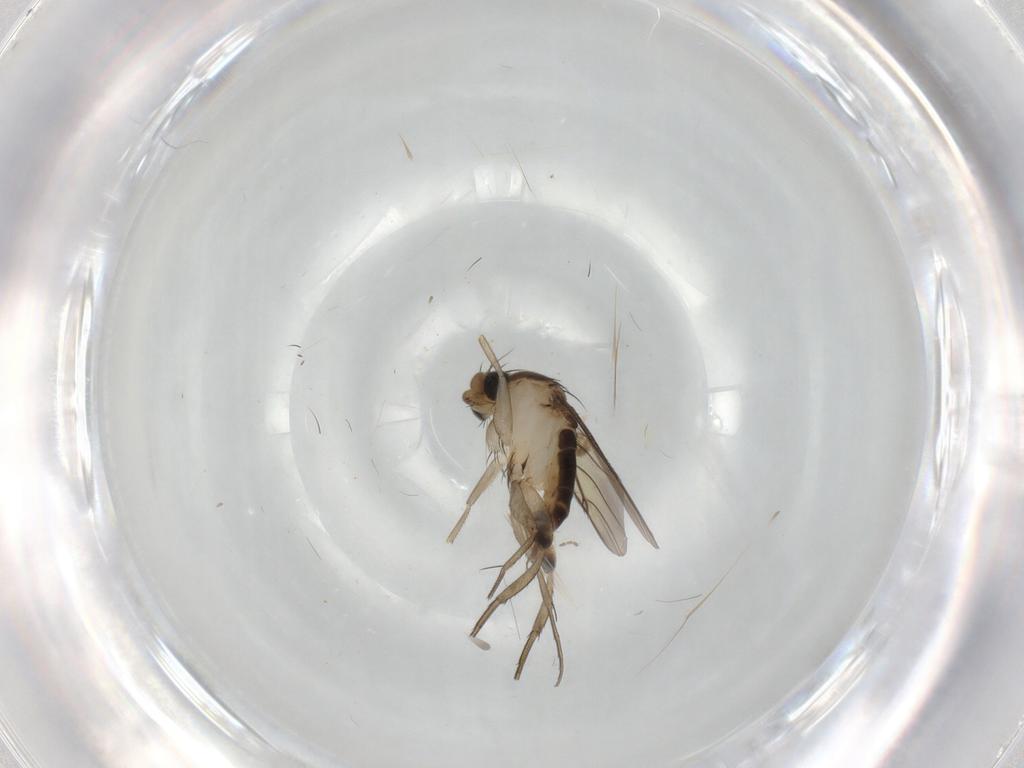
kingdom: Animalia
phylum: Arthropoda
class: Insecta
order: Diptera
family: Phoridae
